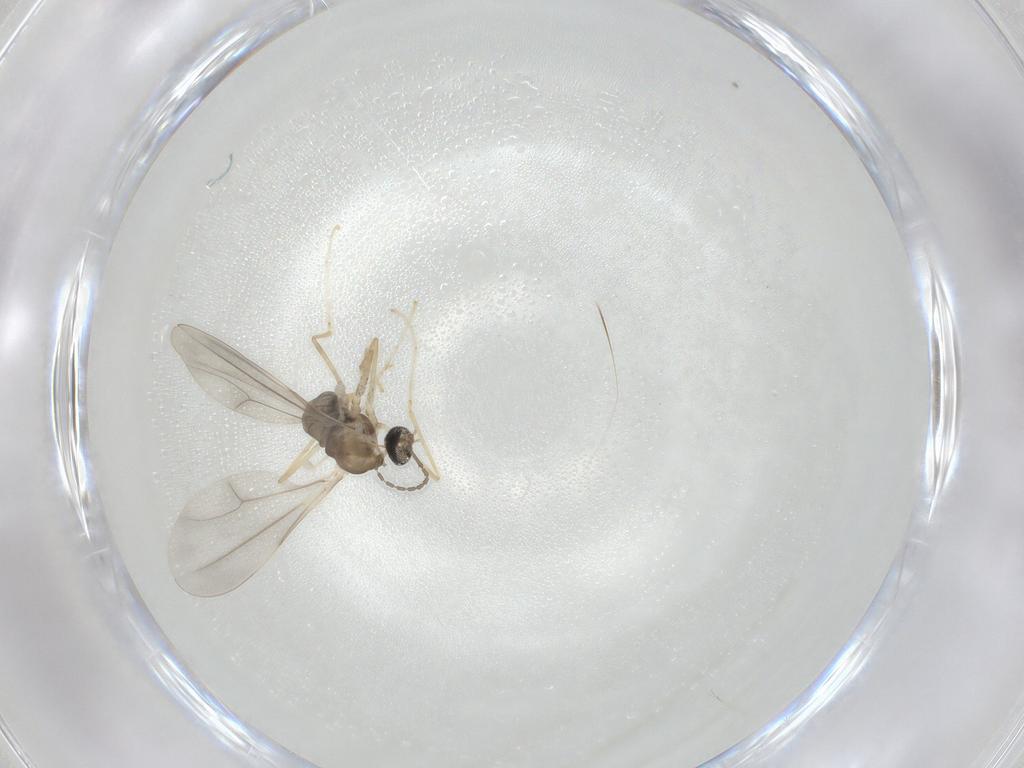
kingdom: Animalia
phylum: Arthropoda
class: Insecta
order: Diptera
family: Cecidomyiidae
